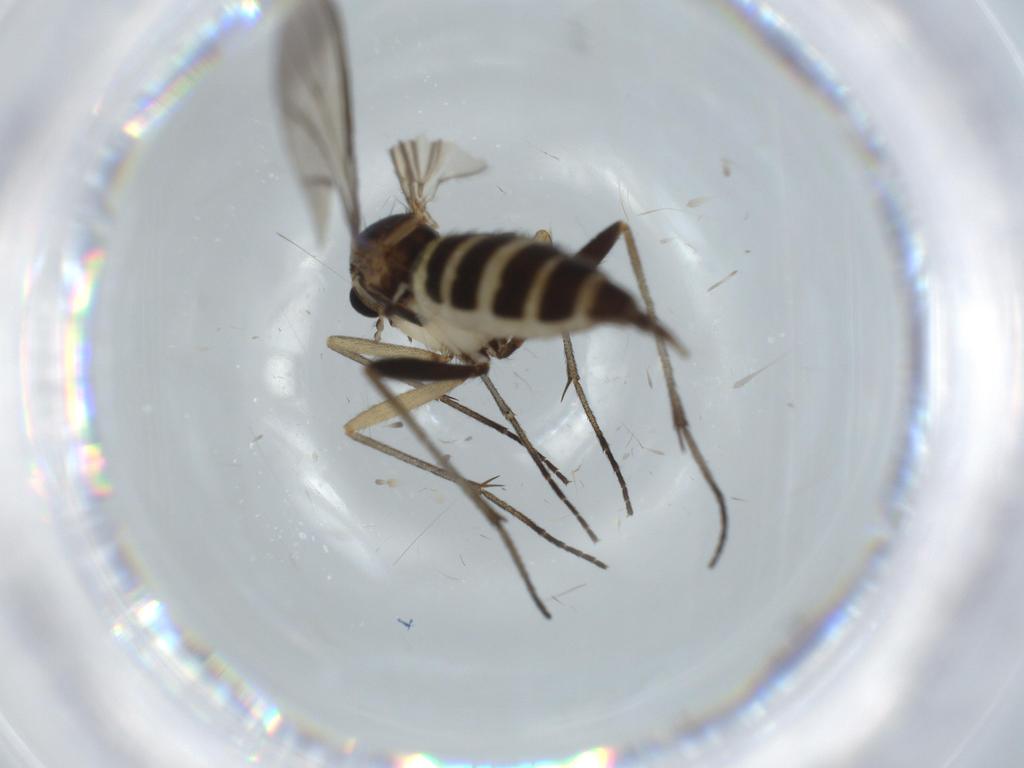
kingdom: Animalia
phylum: Arthropoda
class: Insecta
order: Diptera
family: Sciaridae
